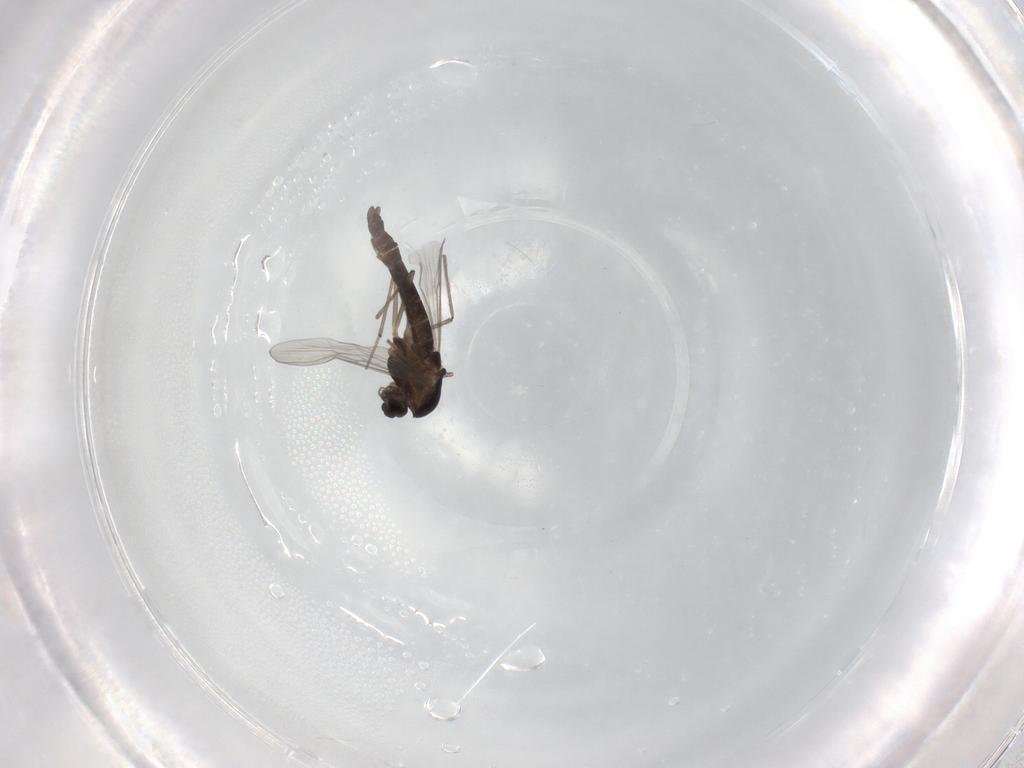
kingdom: Animalia
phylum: Arthropoda
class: Insecta
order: Diptera
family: Chironomidae
